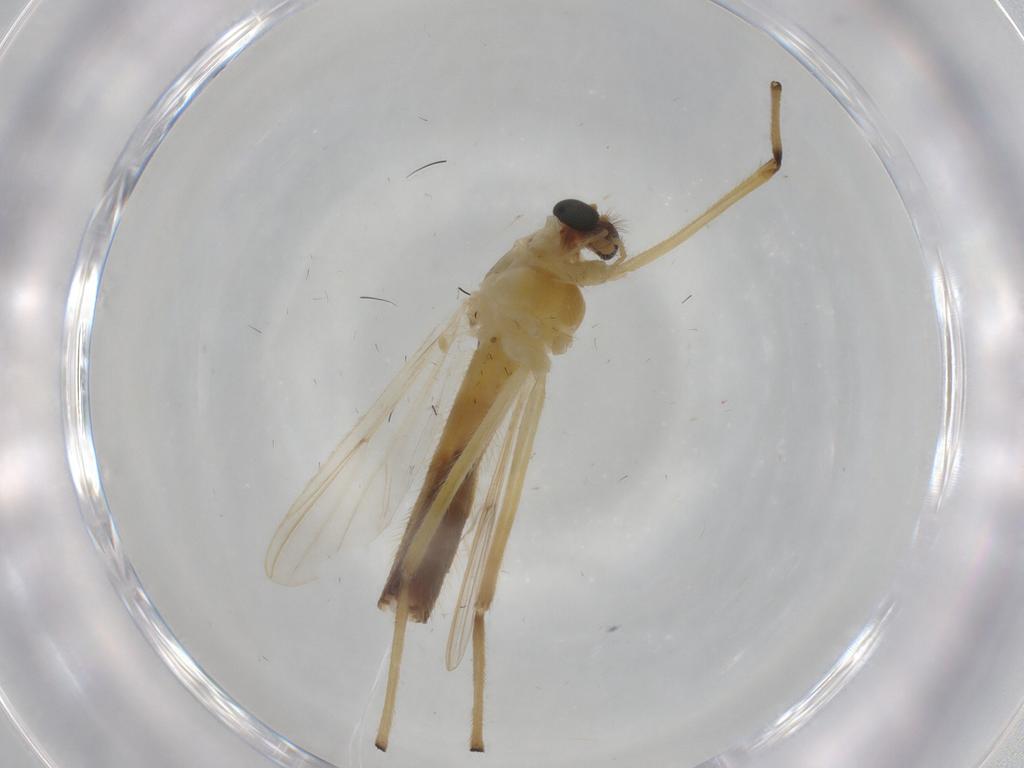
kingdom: Animalia
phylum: Arthropoda
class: Insecta
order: Diptera
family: Chironomidae
